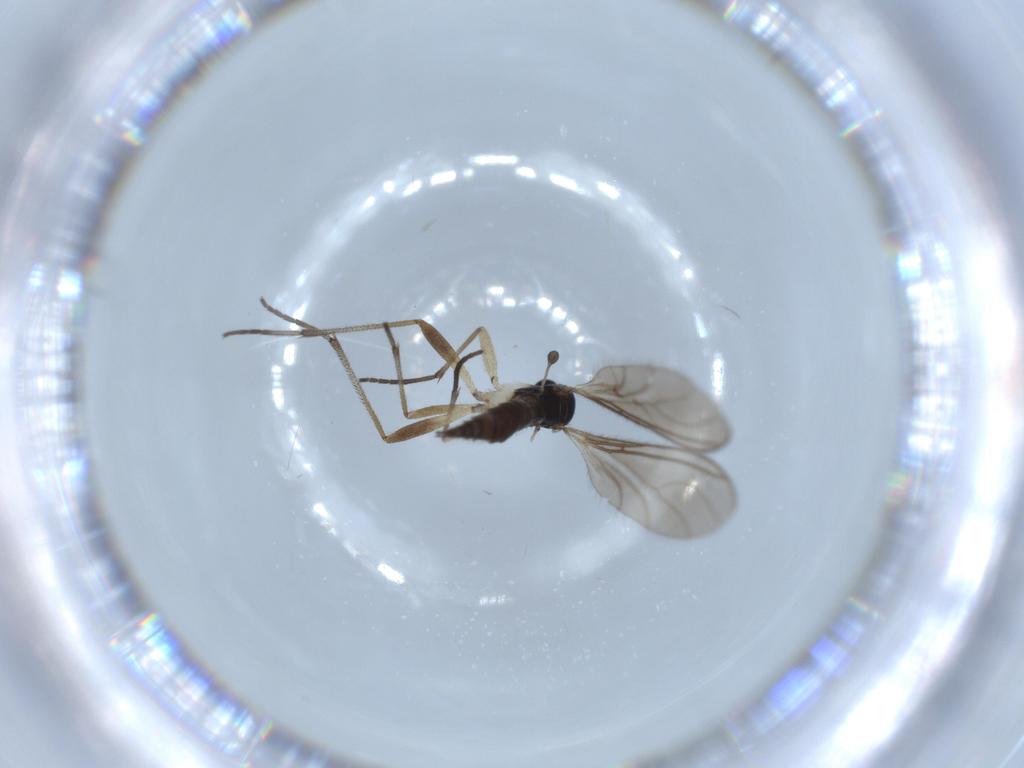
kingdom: Animalia
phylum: Arthropoda
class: Insecta
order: Diptera
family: Sciaridae
